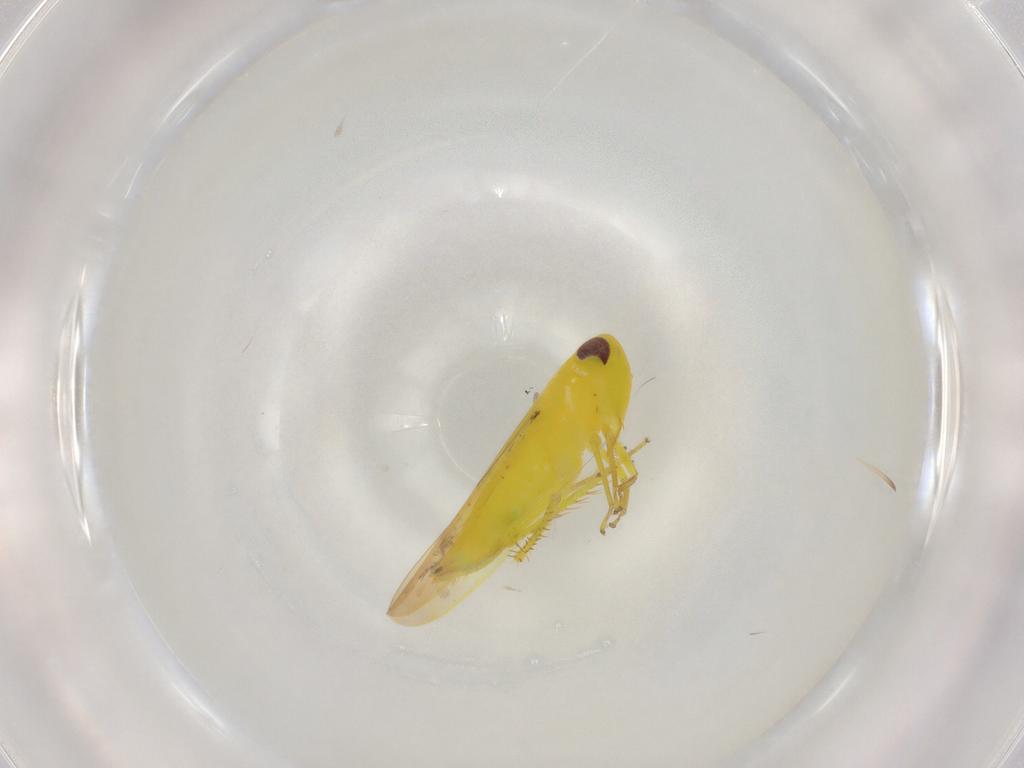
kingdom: Animalia
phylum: Arthropoda
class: Insecta
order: Hemiptera
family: Cicadellidae
